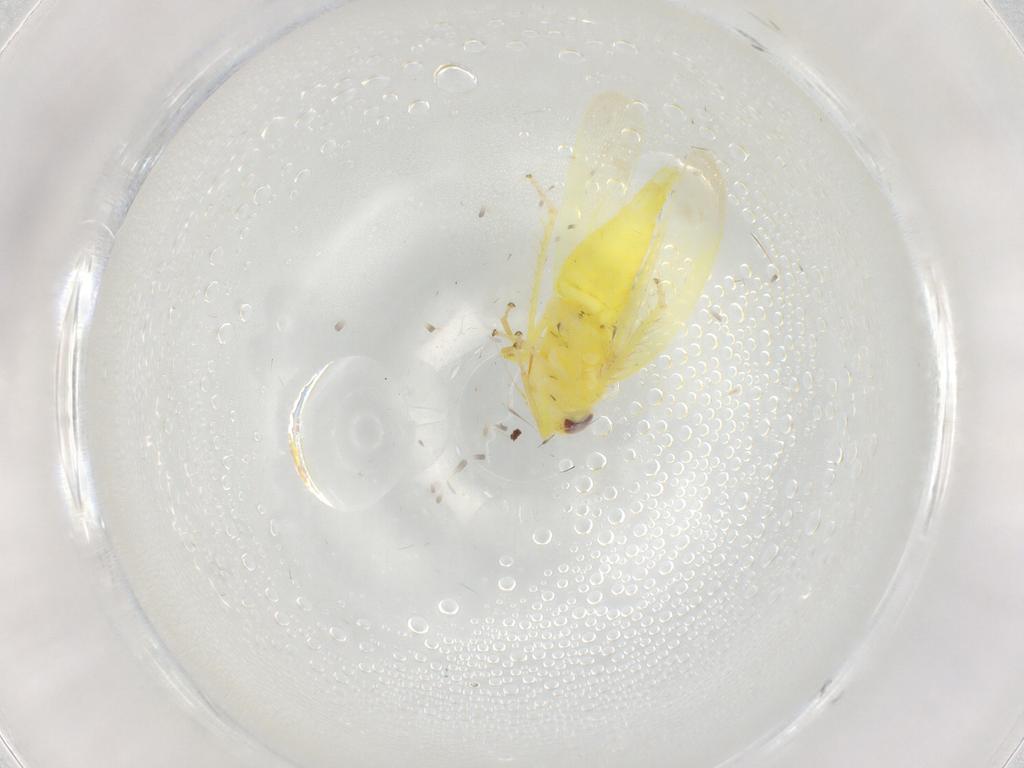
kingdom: Animalia
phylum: Arthropoda
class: Insecta
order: Hemiptera
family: Cicadellidae
